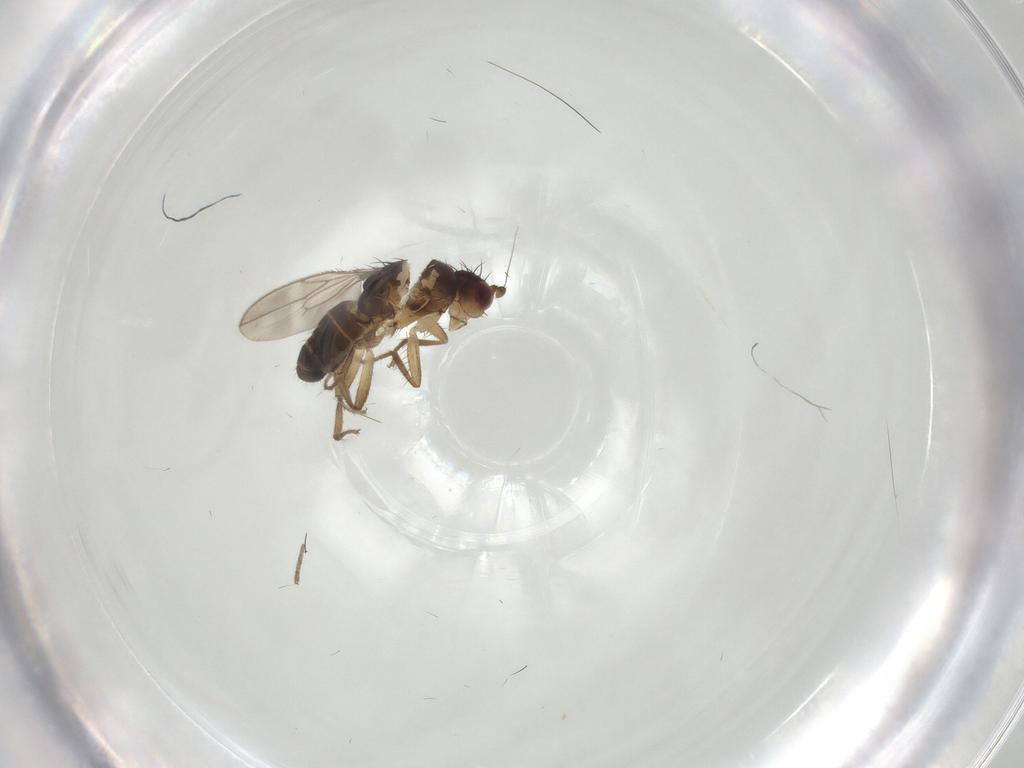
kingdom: Animalia
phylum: Arthropoda
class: Insecta
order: Diptera
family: Sphaeroceridae
